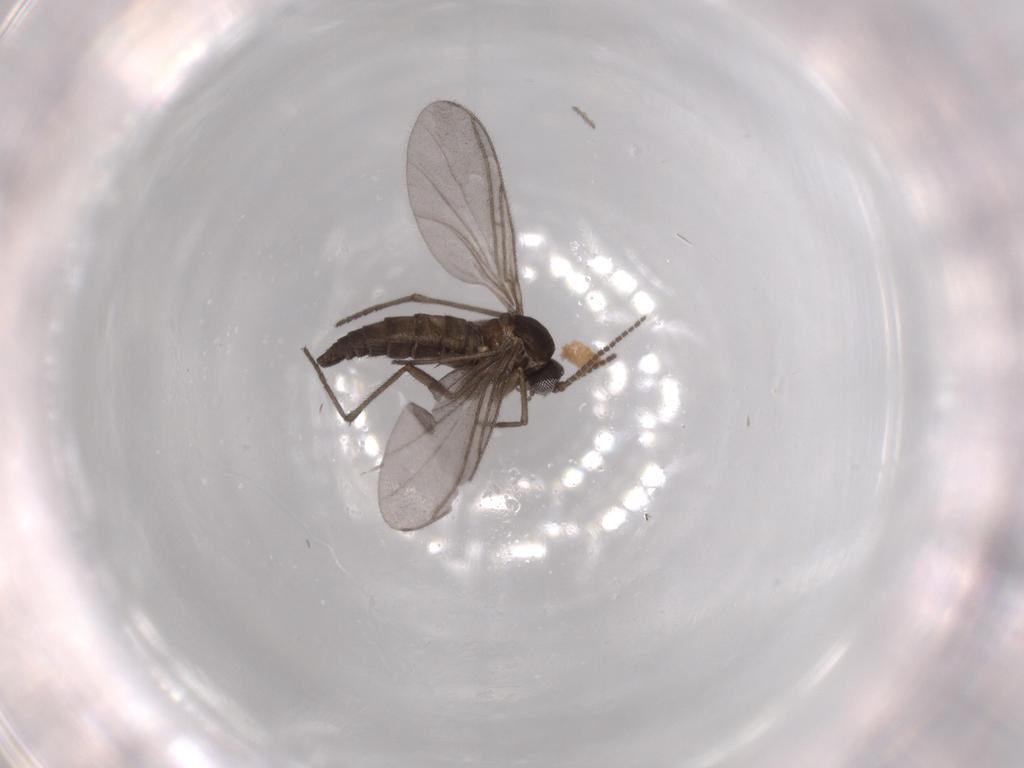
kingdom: Animalia
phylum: Arthropoda
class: Insecta
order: Diptera
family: Sciaridae
